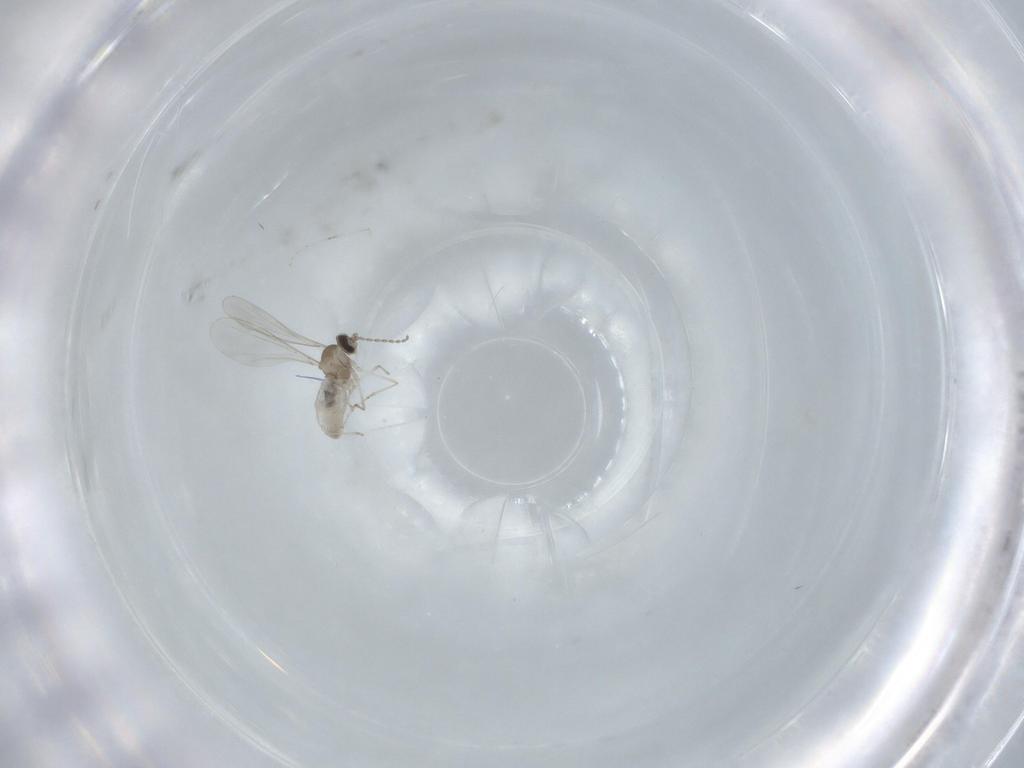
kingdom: Animalia
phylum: Arthropoda
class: Insecta
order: Diptera
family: Cecidomyiidae
